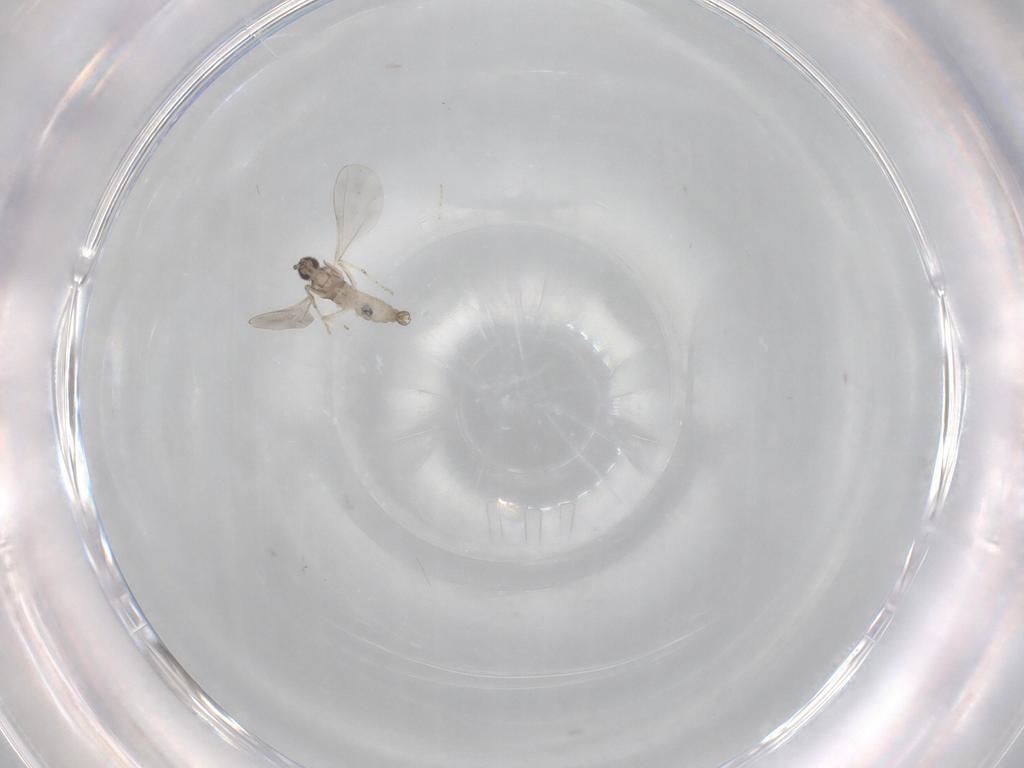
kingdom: Animalia
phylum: Arthropoda
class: Insecta
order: Diptera
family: Cecidomyiidae
